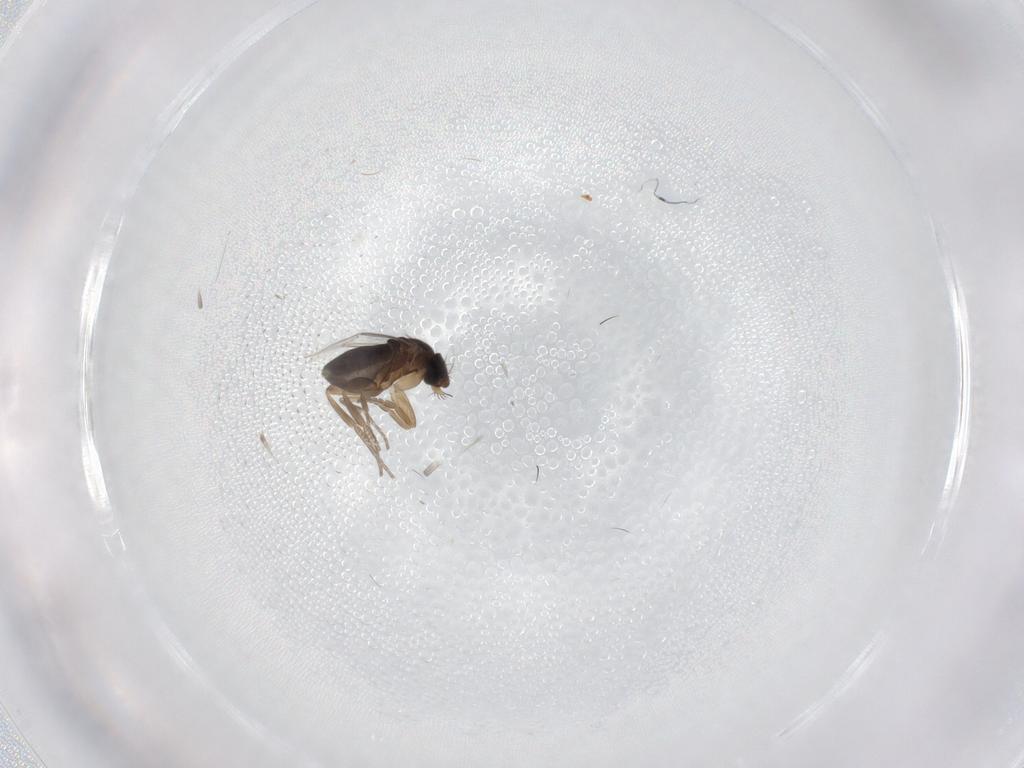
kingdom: Animalia
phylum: Arthropoda
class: Insecta
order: Diptera
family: Phoridae
